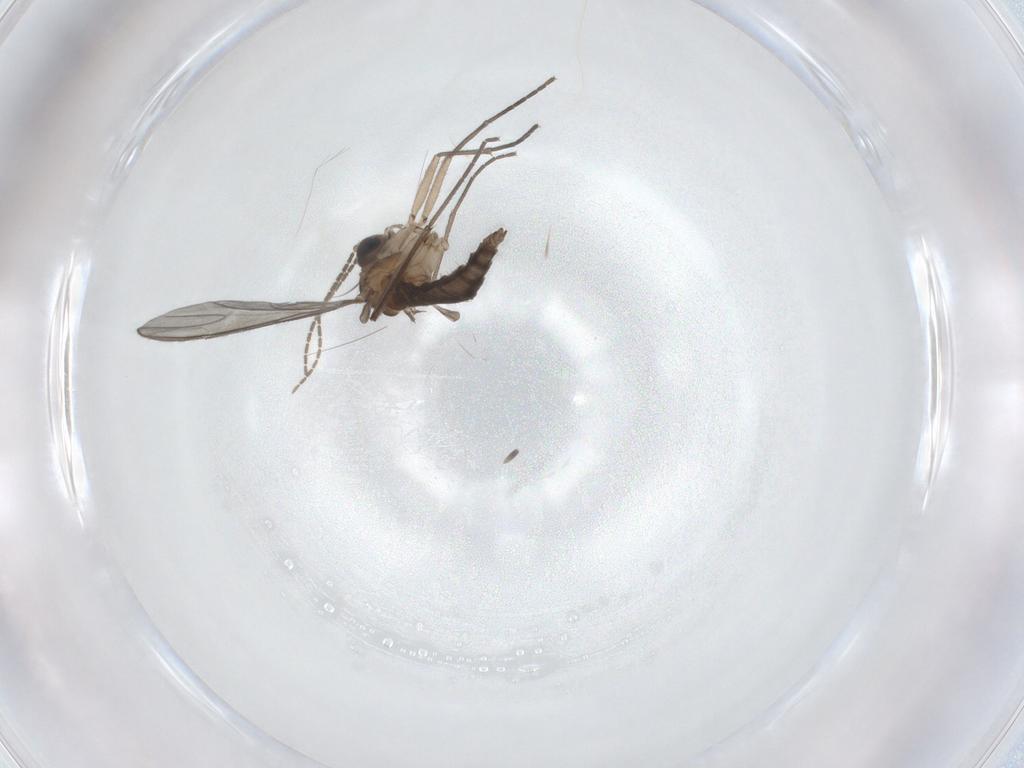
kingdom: Animalia
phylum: Arthropoda
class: Insecta
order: Diptera
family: Sciaridae
